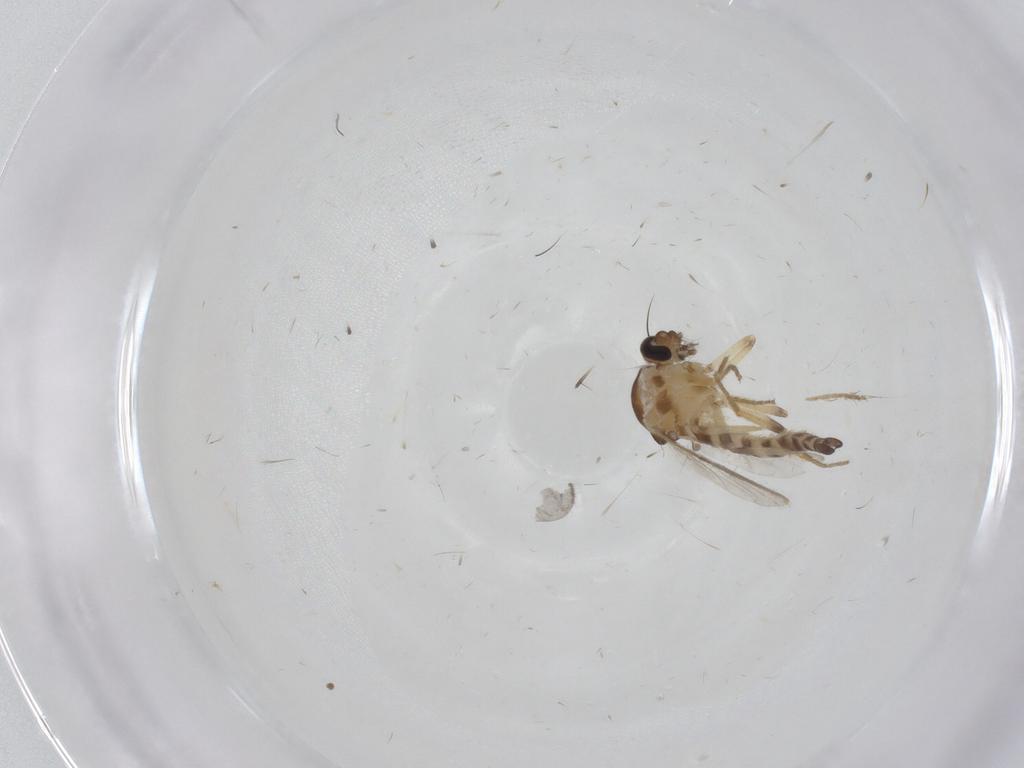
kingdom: Animalia
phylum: Arthropoda
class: Insecta
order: Diptera
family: Ceratopogonidae
